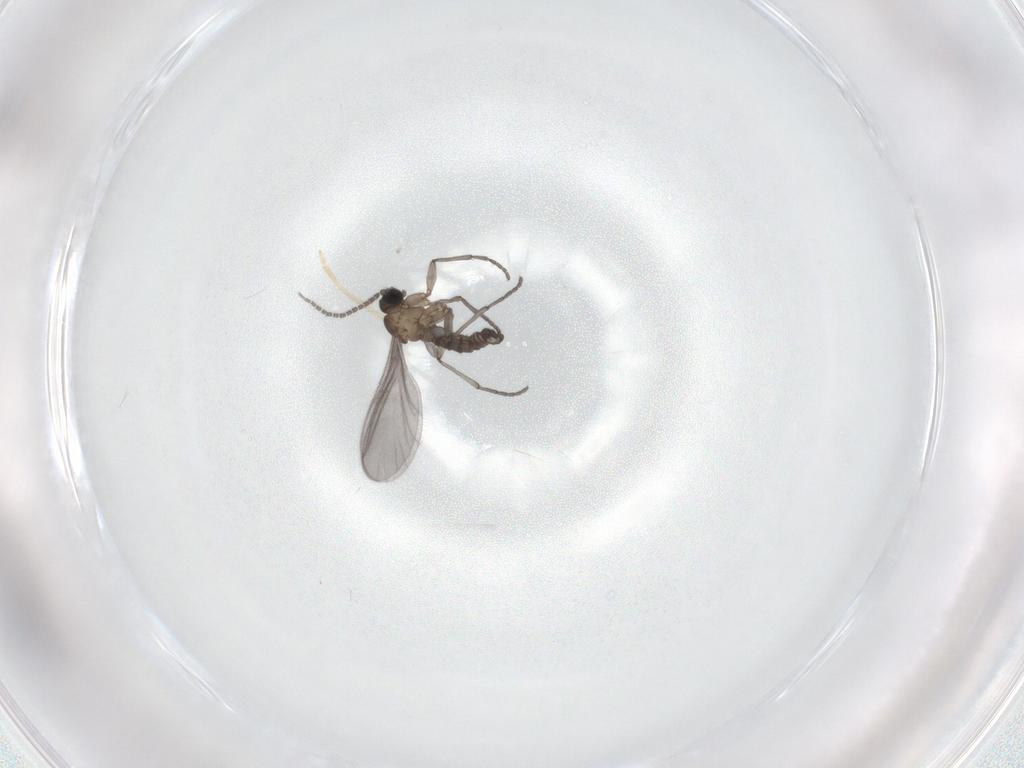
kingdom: Animalia
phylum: Arthropoda
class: Insecta
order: Diptera
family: Sciaridae
